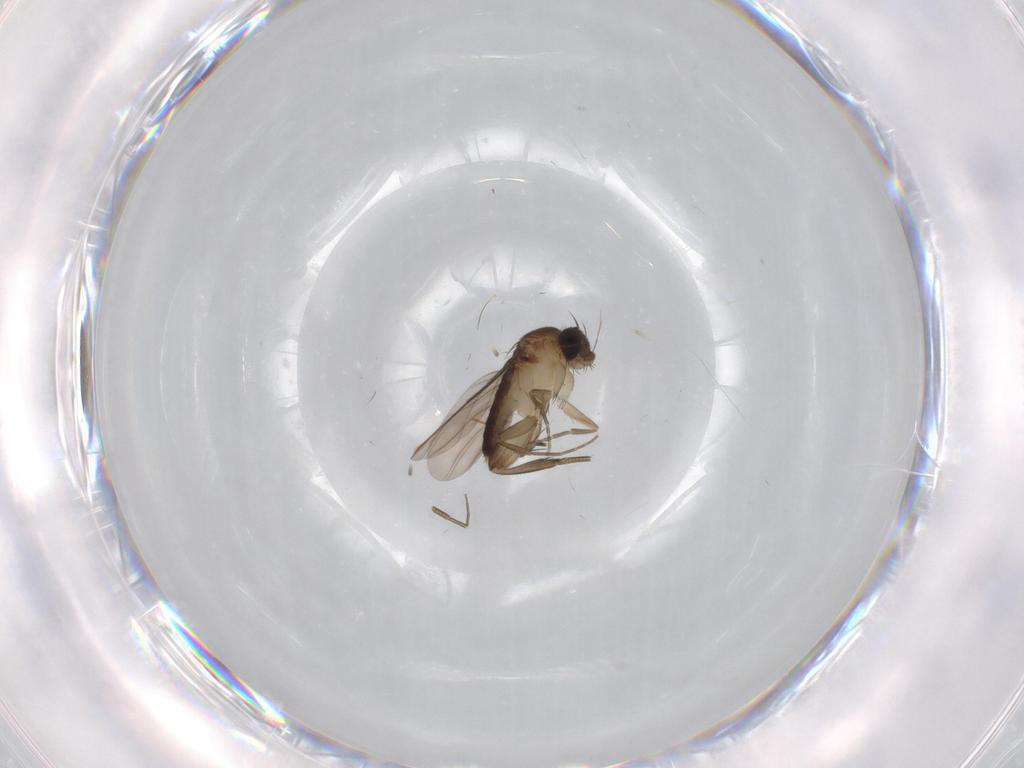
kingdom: Animalia
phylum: Arthropoda
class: Insecta
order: Diptera
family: Phoridae
